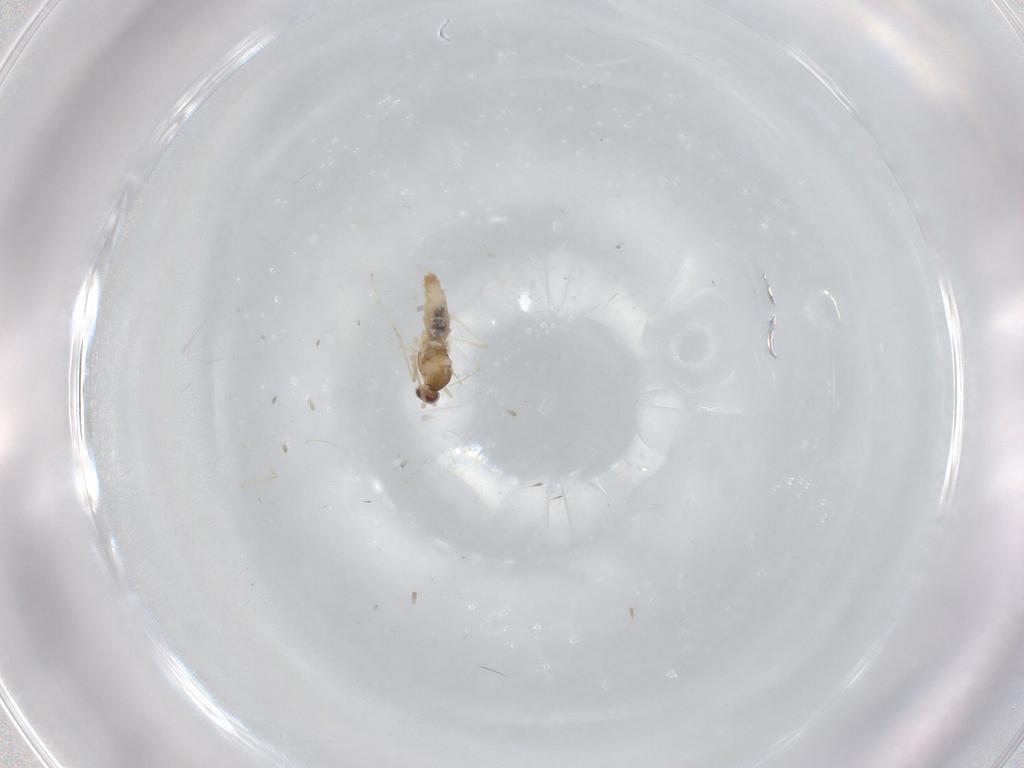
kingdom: Animalia
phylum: Arthropoda
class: Insecta
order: Diptera
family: Cecidomyiidae
